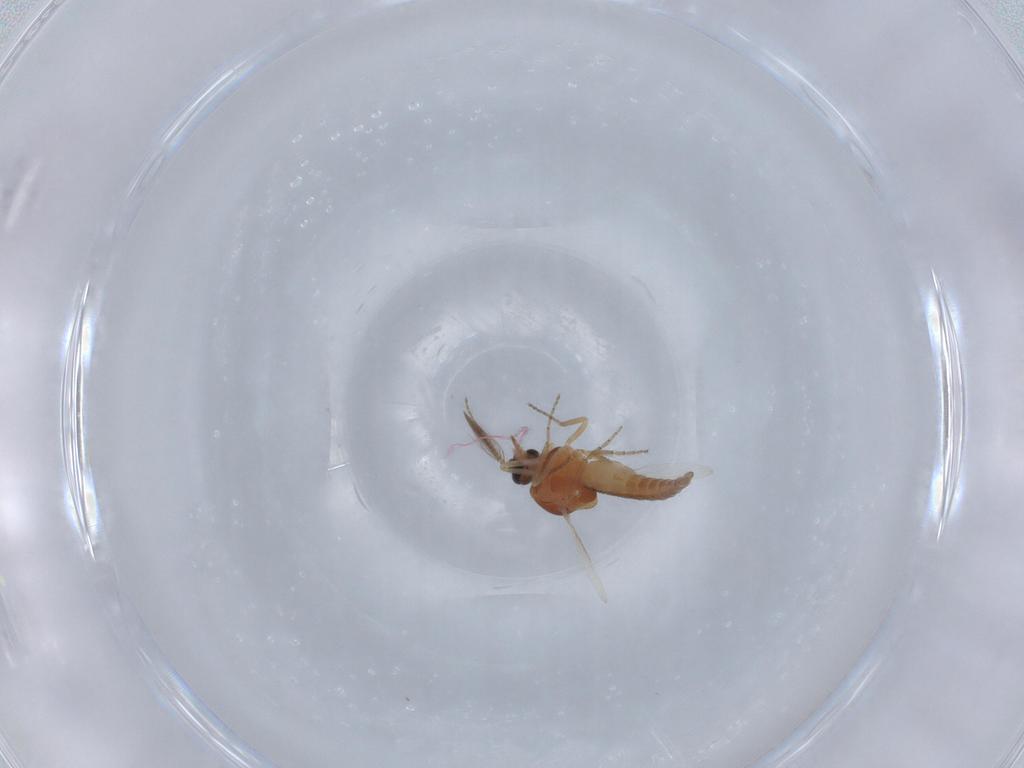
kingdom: Animalia
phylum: Arthropoda
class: Insecta
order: Diptera
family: Ceratopogonidae
